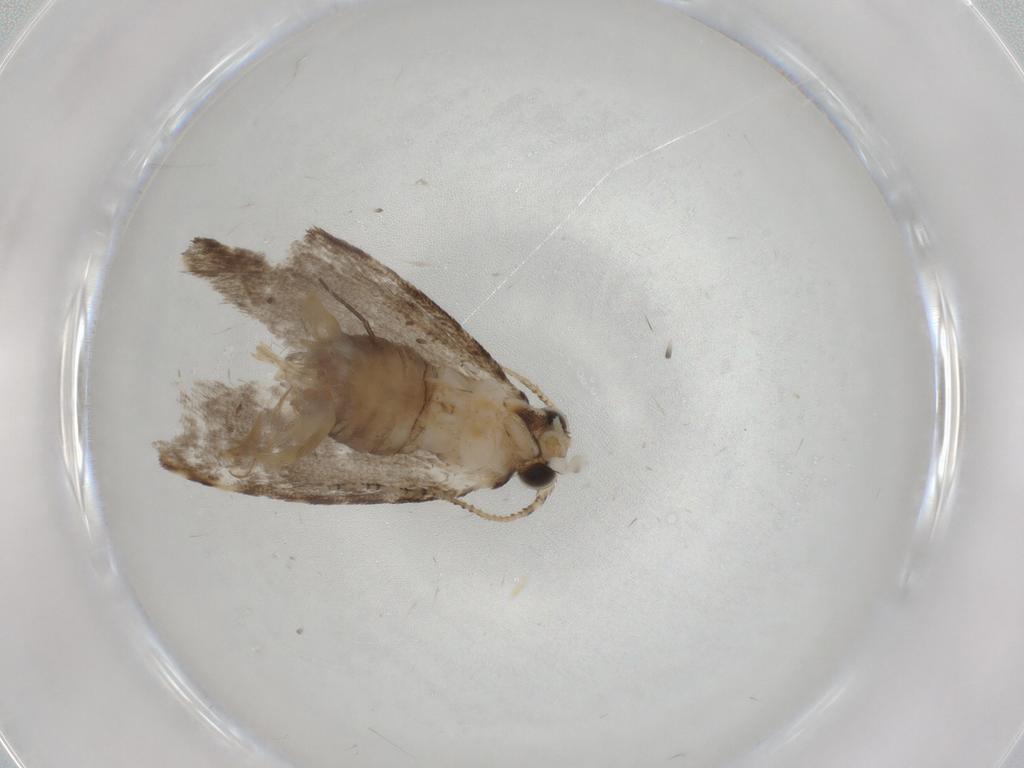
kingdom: Animalia
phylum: Arthropoda
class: Insecta
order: Lepidoptera
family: Tineidae
